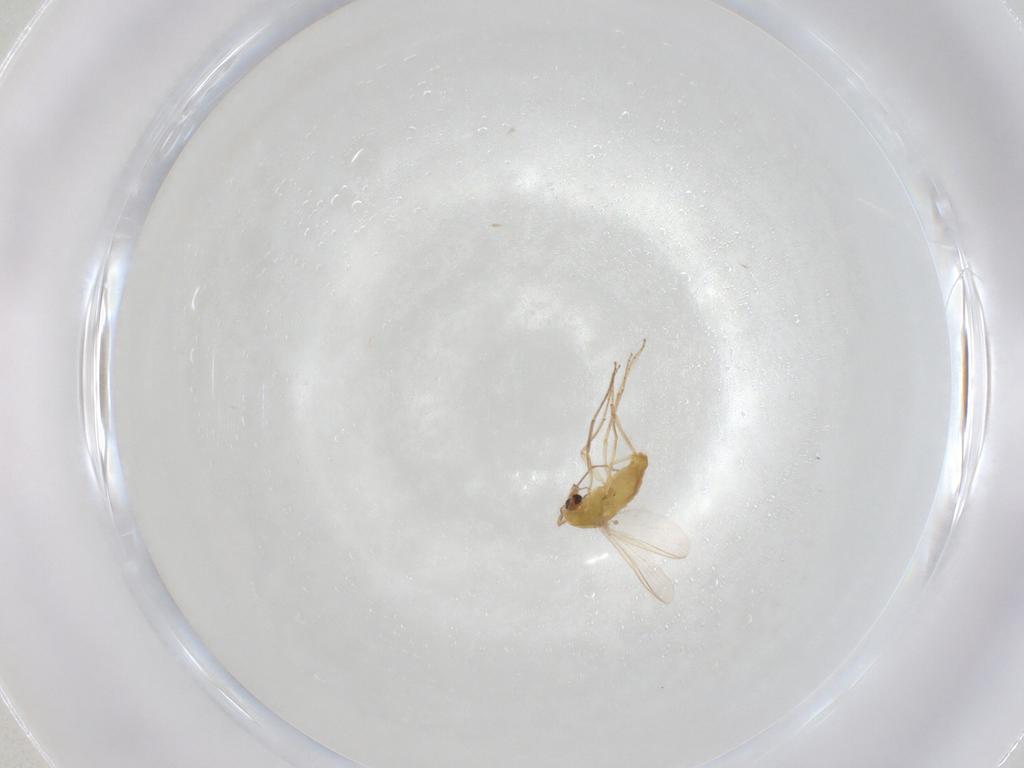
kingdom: Animalia
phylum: Arthropoda
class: Insecta
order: Diptera
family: Chironomidae
